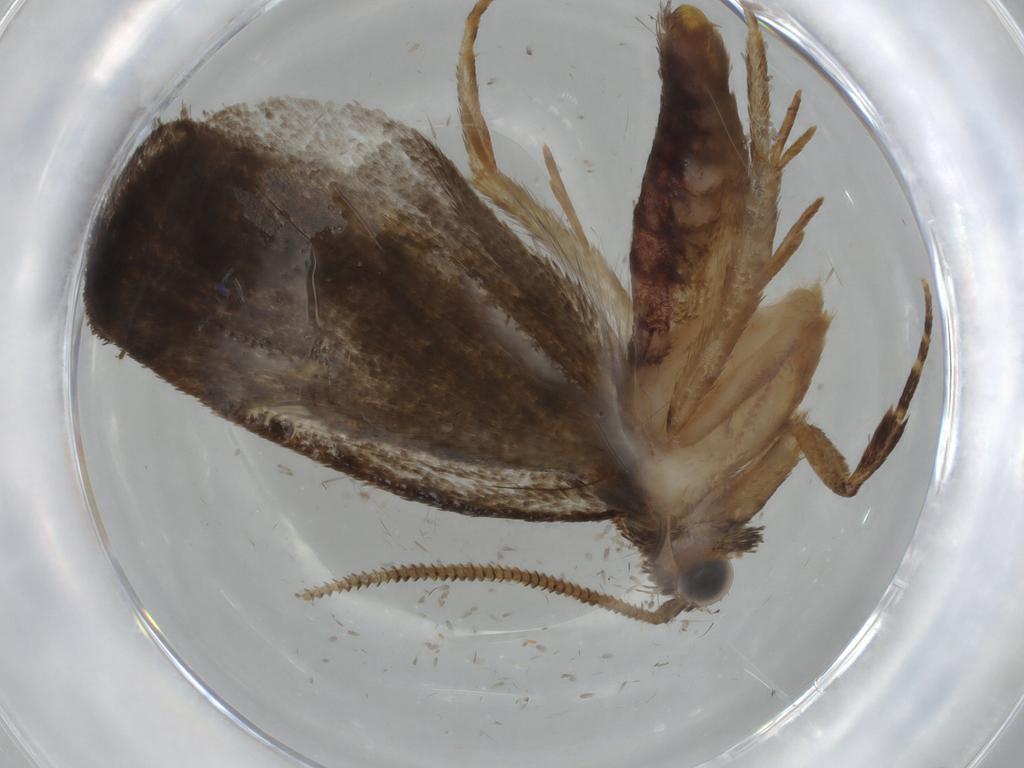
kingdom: Animalia
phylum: Arthropoda
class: Insecta
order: Lepidoptera
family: Tineidae
